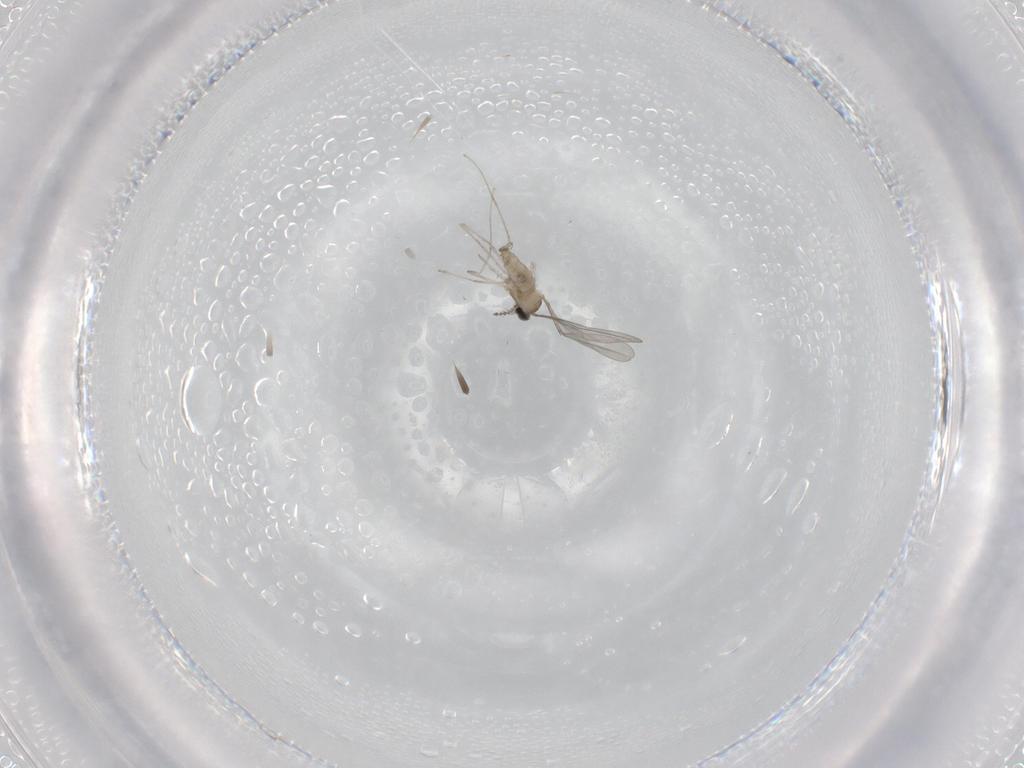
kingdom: Animalia
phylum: Arthropoda
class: Insecta
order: Diptera
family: Cecidomyiidae
